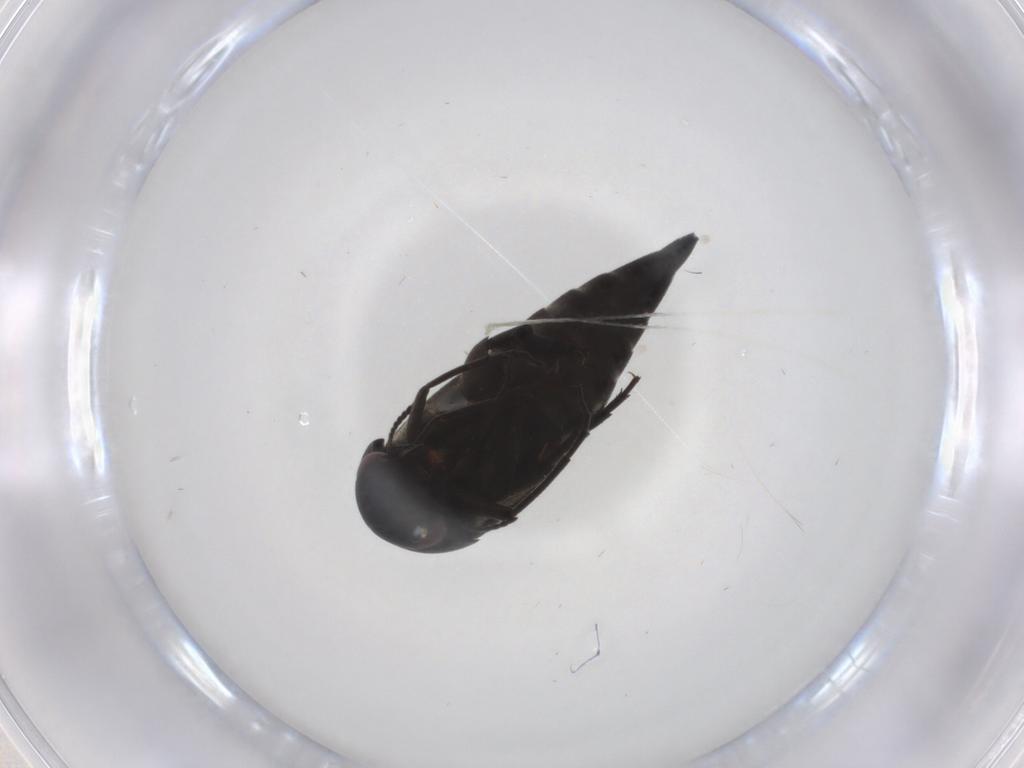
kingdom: Animalia
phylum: Arthropoda
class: Insecta
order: Coleoptera
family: Mordellidae
